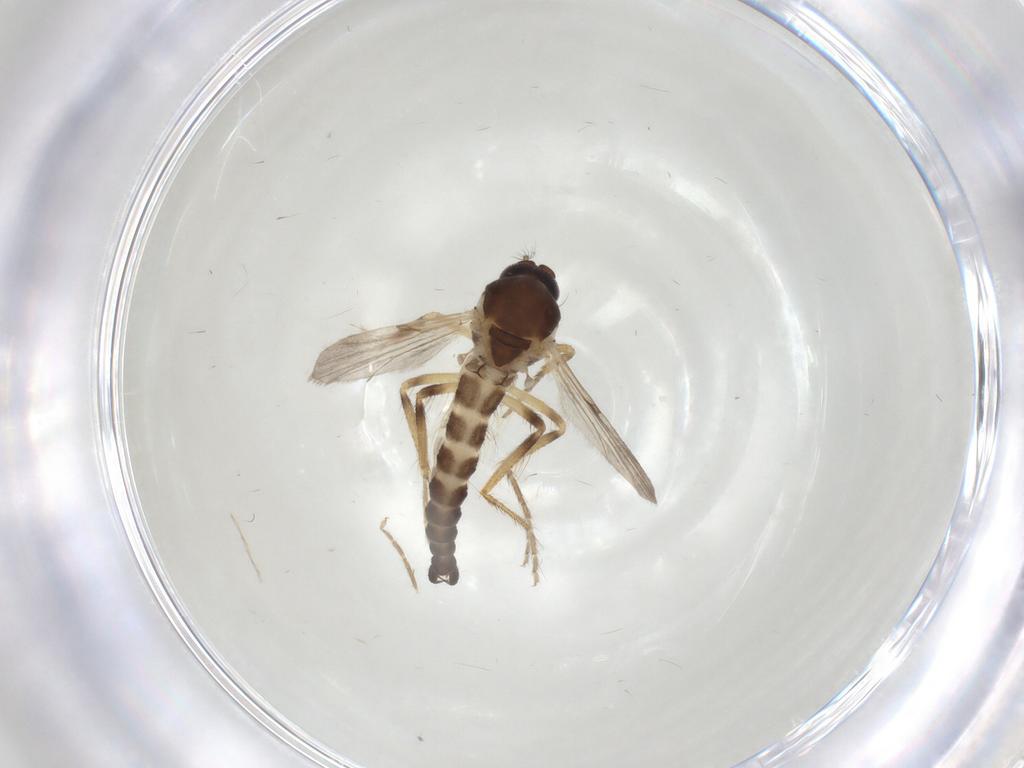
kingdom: Animalia
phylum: Arthropoda
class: Insecta
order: Diptera
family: Ceratopogonidae
